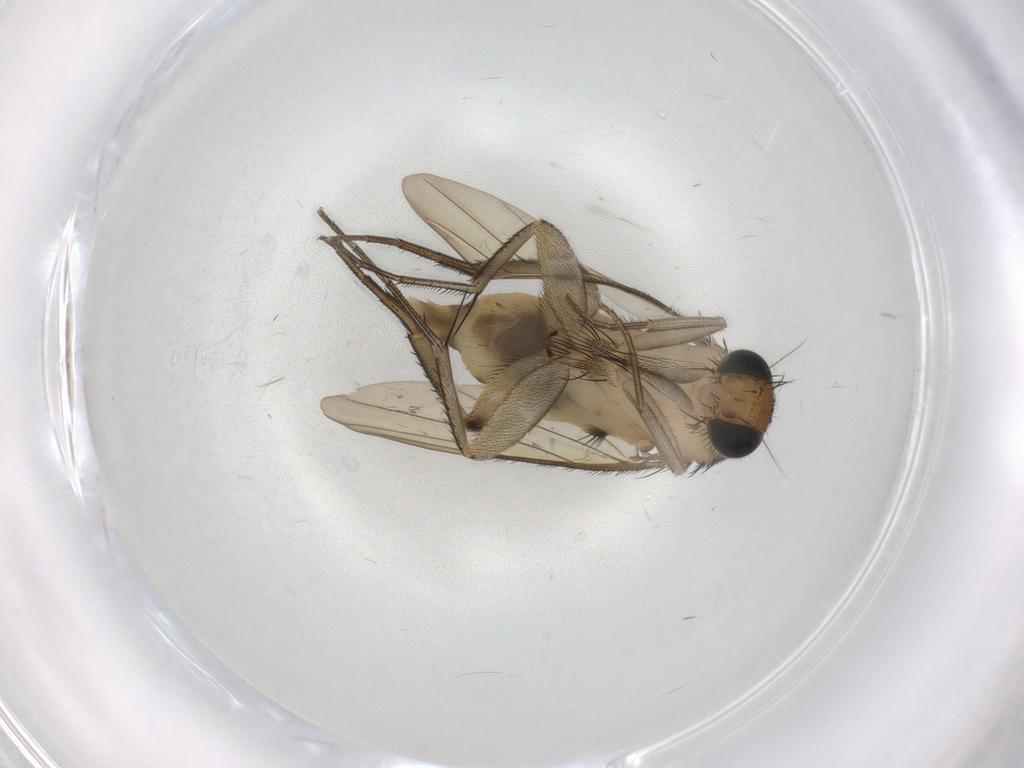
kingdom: Animalia
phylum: Arthropoda
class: Insecta
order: Diptera
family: Phoridae
